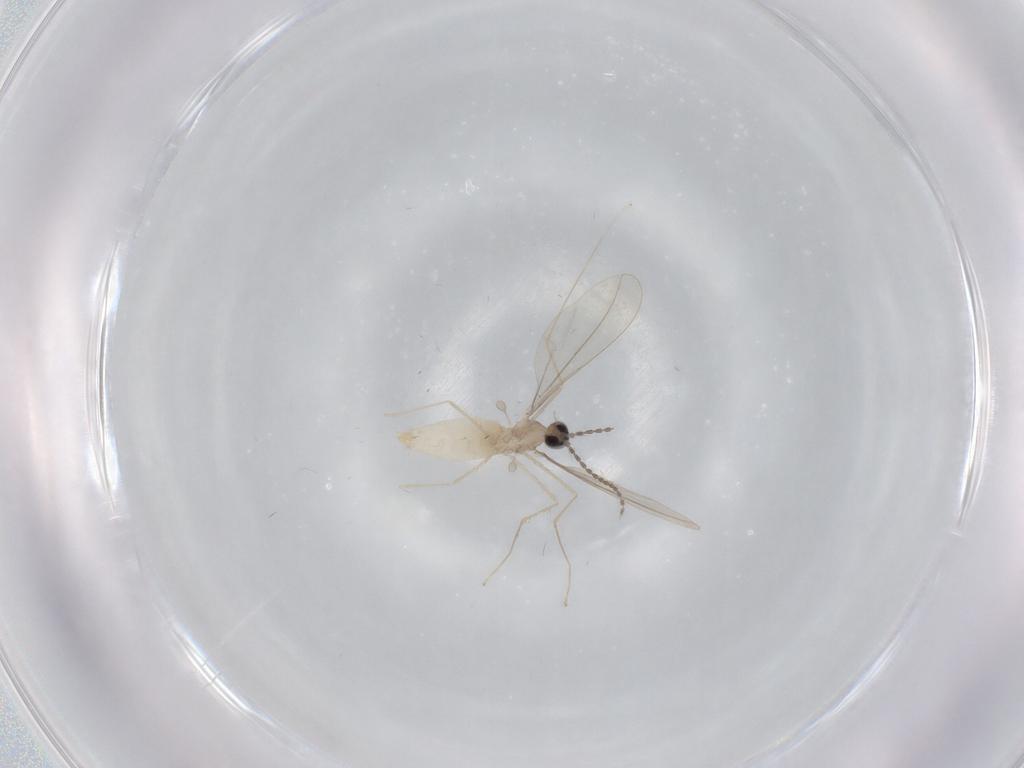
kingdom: Animalia
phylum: Arthropoda
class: Insecta
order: Diptera
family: Cecidomyiidae
